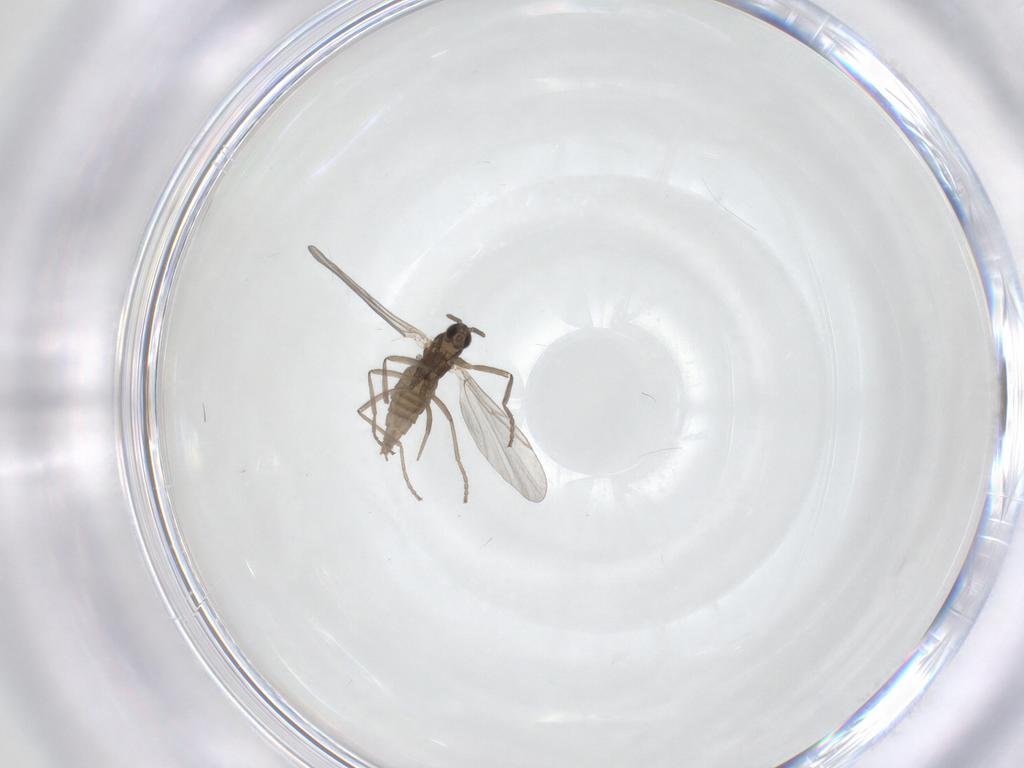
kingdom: Animalia
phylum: Arthropoda
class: Insecta
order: Diptera
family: Cecidomyiidae
